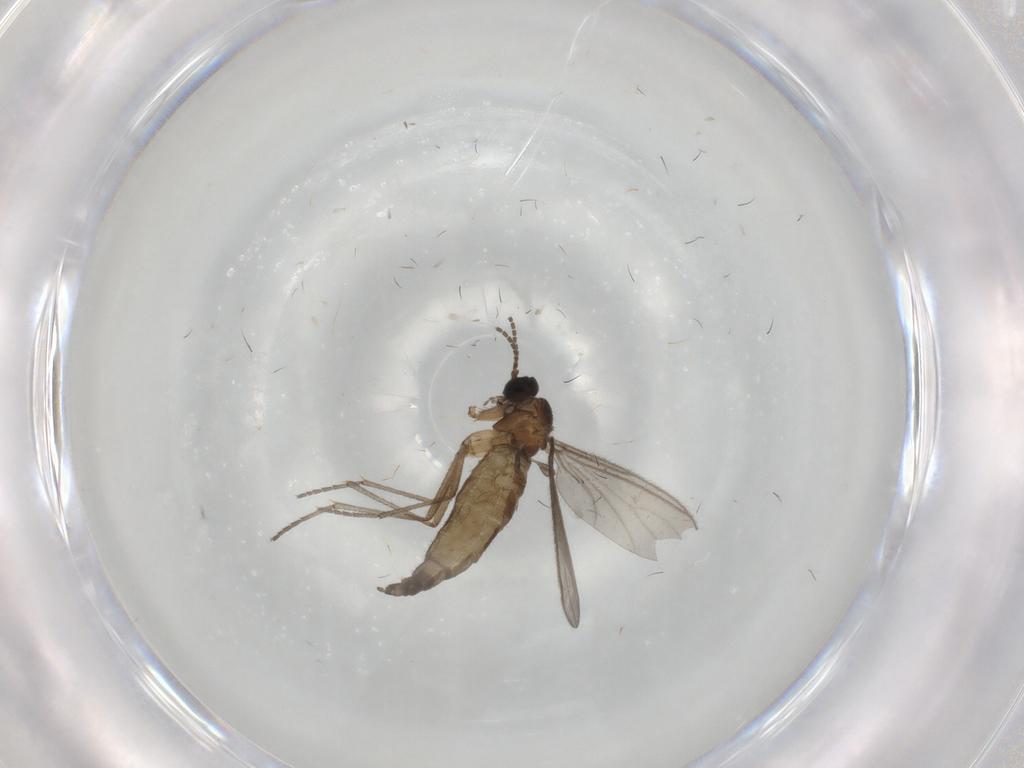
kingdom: Animalia
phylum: Arthropoda
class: Insecta
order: Diptera
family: Sciaridae
